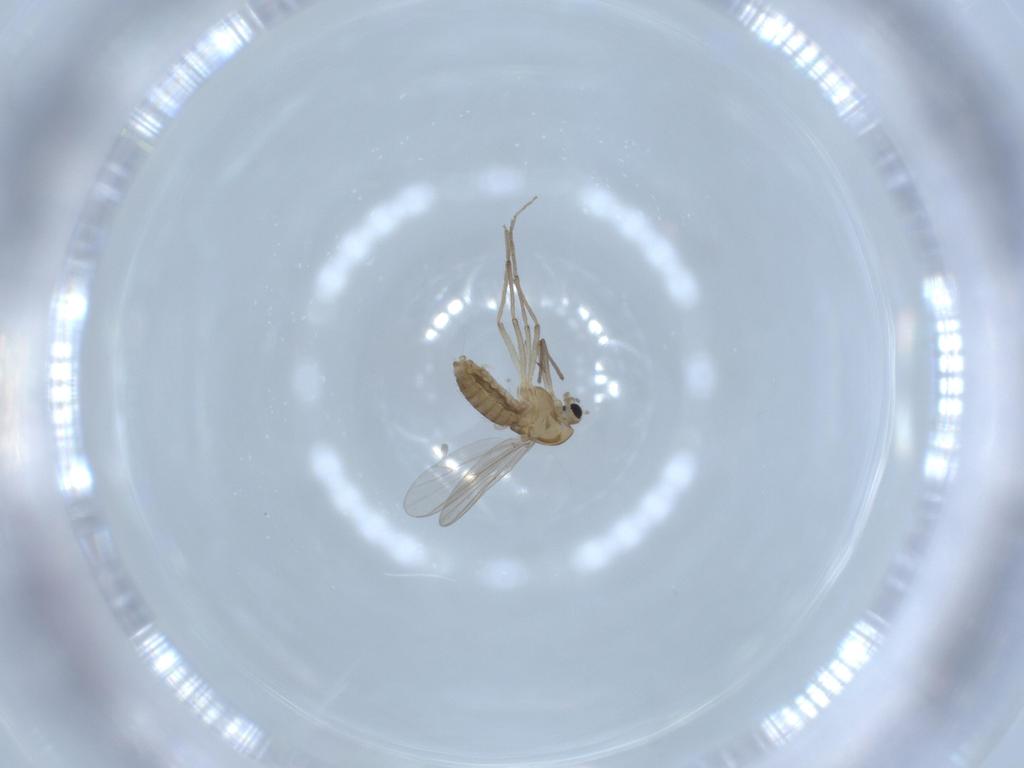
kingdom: Animalia
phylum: Arthropoda
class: Insecta
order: Diptera
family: Chironomidae
